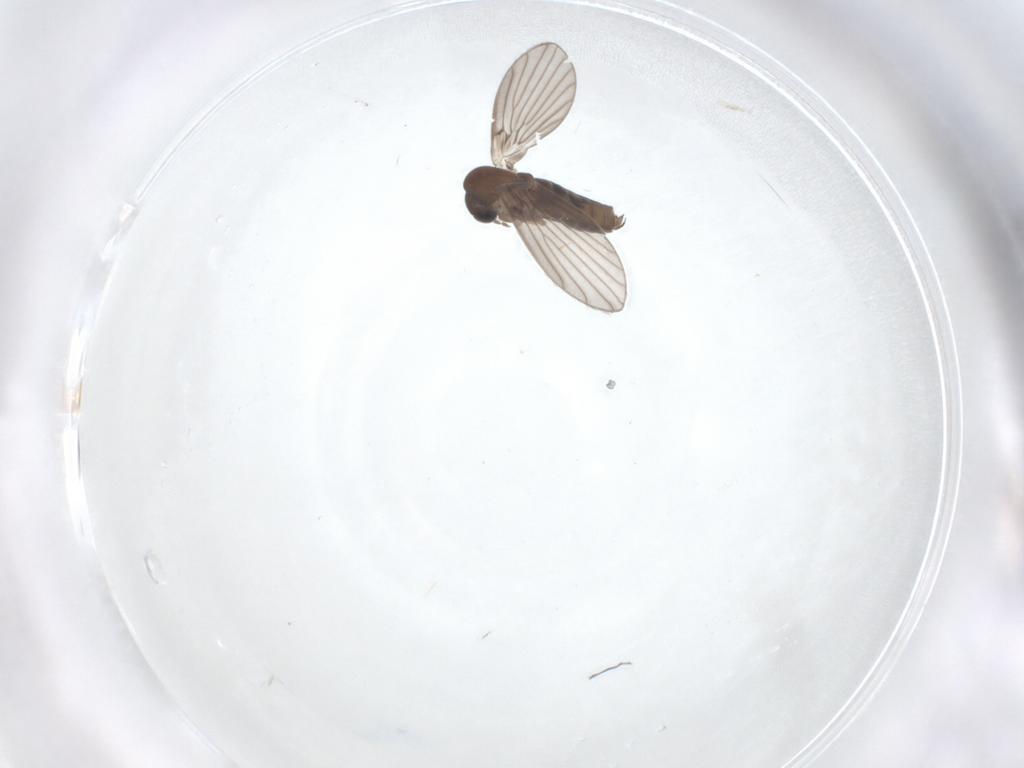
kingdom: Animalia
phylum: Arthropoda
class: Insecta
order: Diptera
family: Psychodidae
